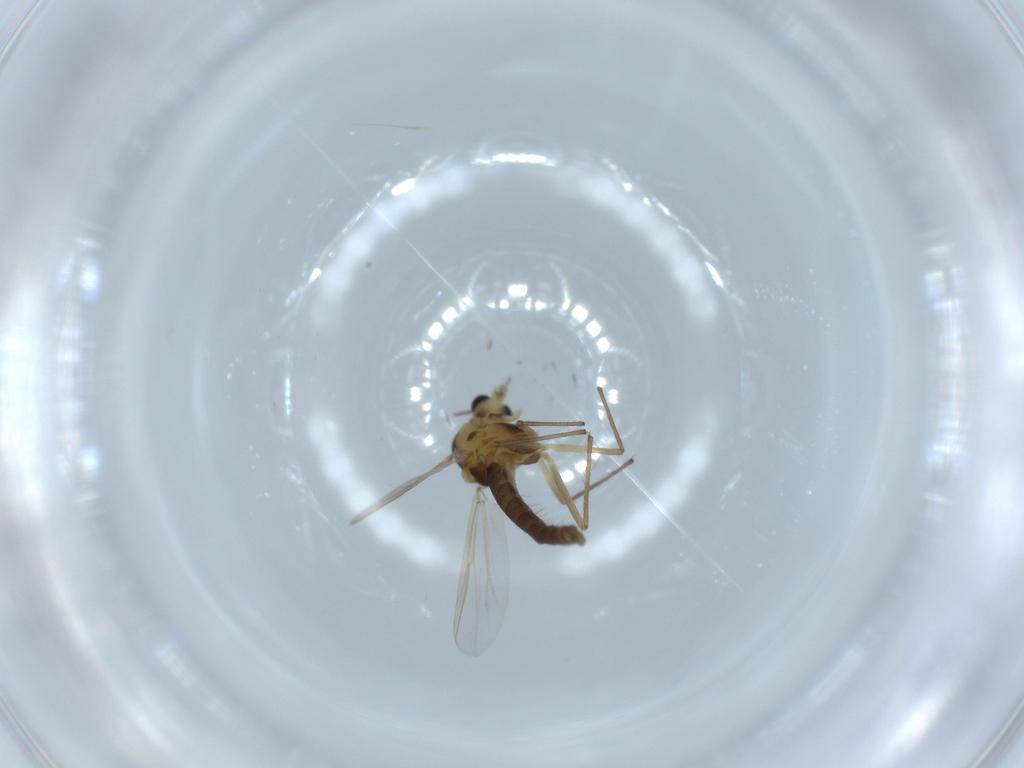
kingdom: Animalia
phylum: Arthropoda
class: Insecta
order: Diptera
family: Chironomidae
